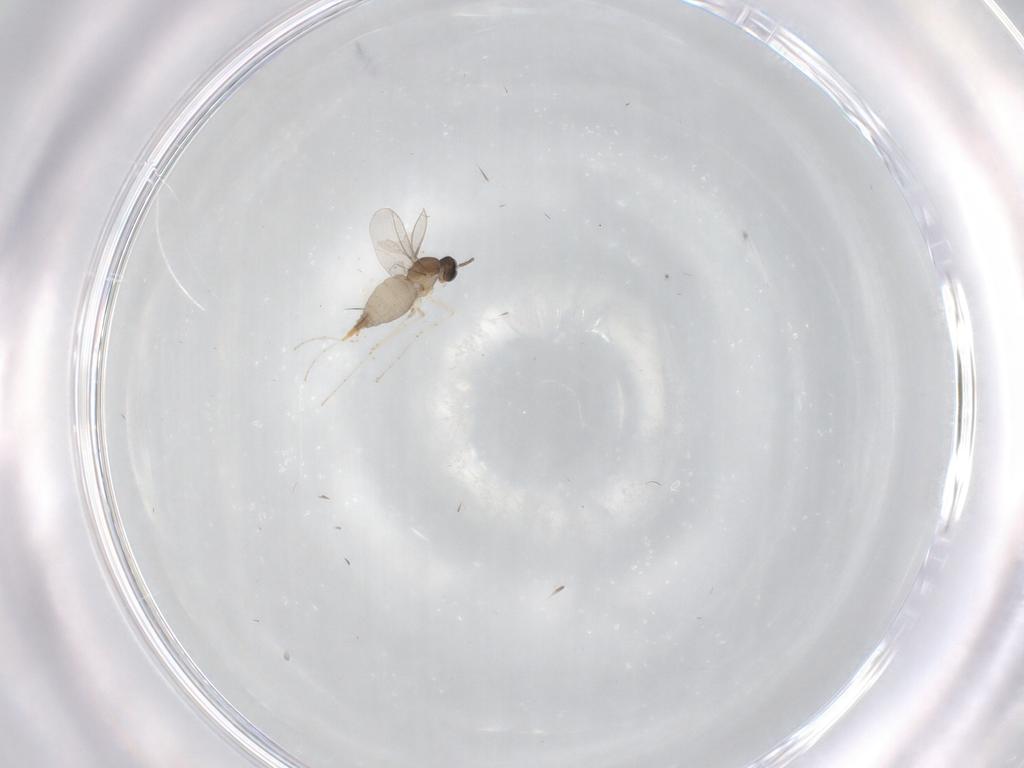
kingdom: Animalia
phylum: Arthropoda
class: Insecta
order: Diptera
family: Cecidomyiidae
